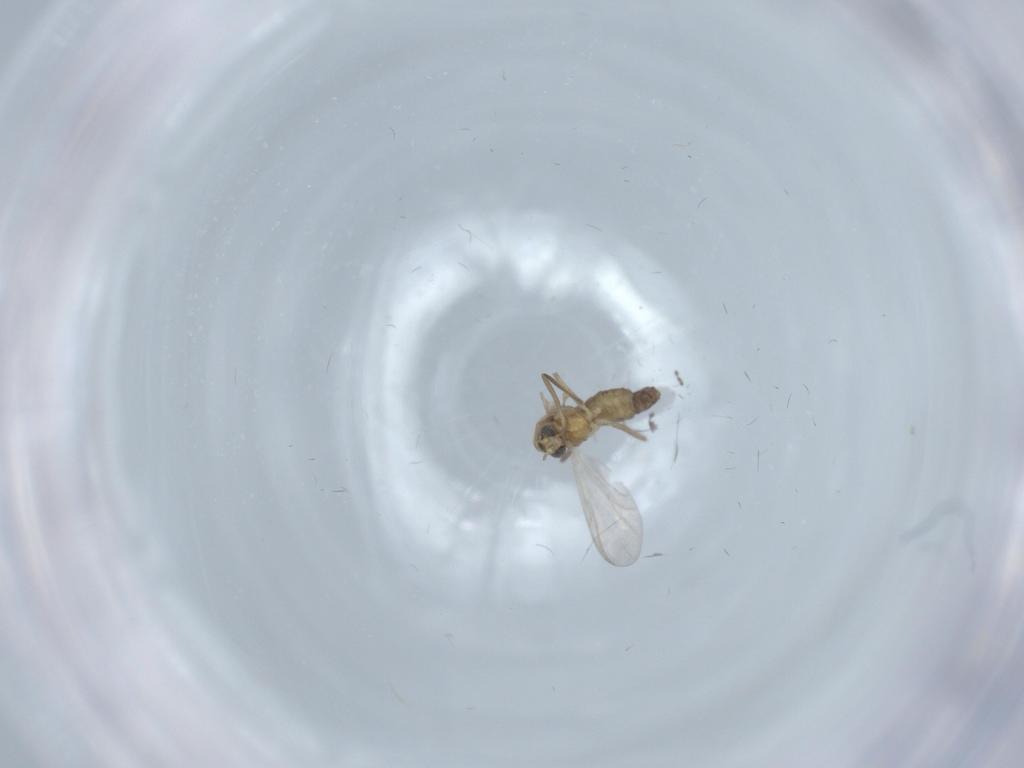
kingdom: Animalia
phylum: Arthropoda
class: Insecta
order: Diptera
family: Chironomidae
